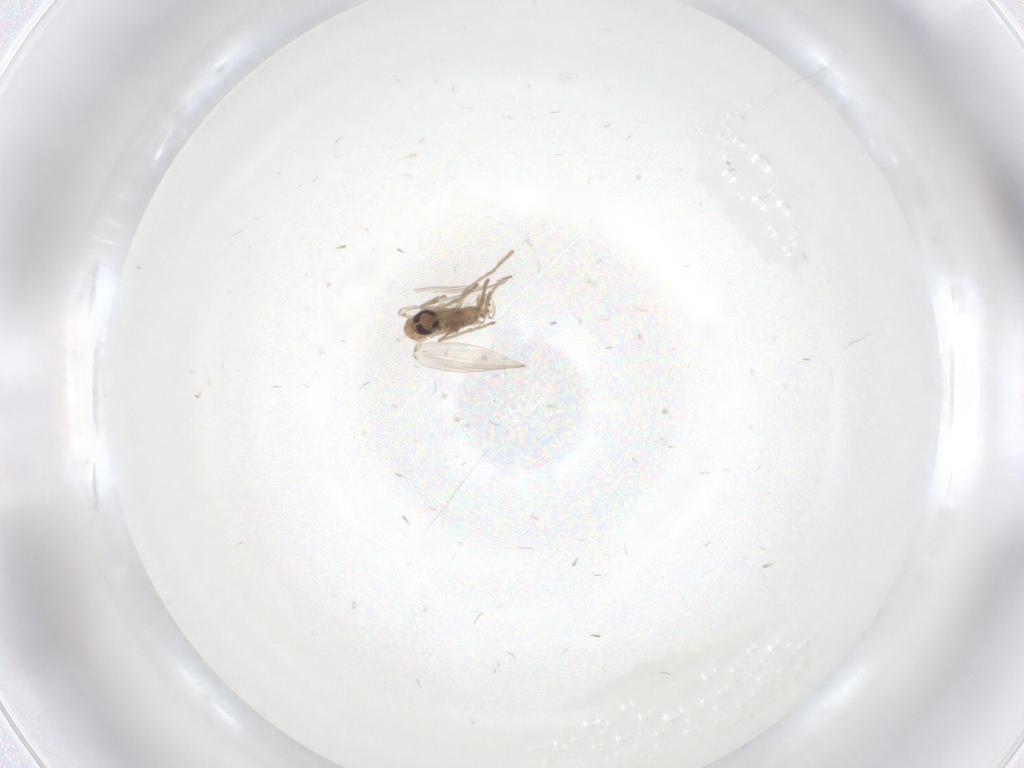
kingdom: Animalia
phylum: Arthropoda
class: Insecta
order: Diptera
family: Psychodidae
